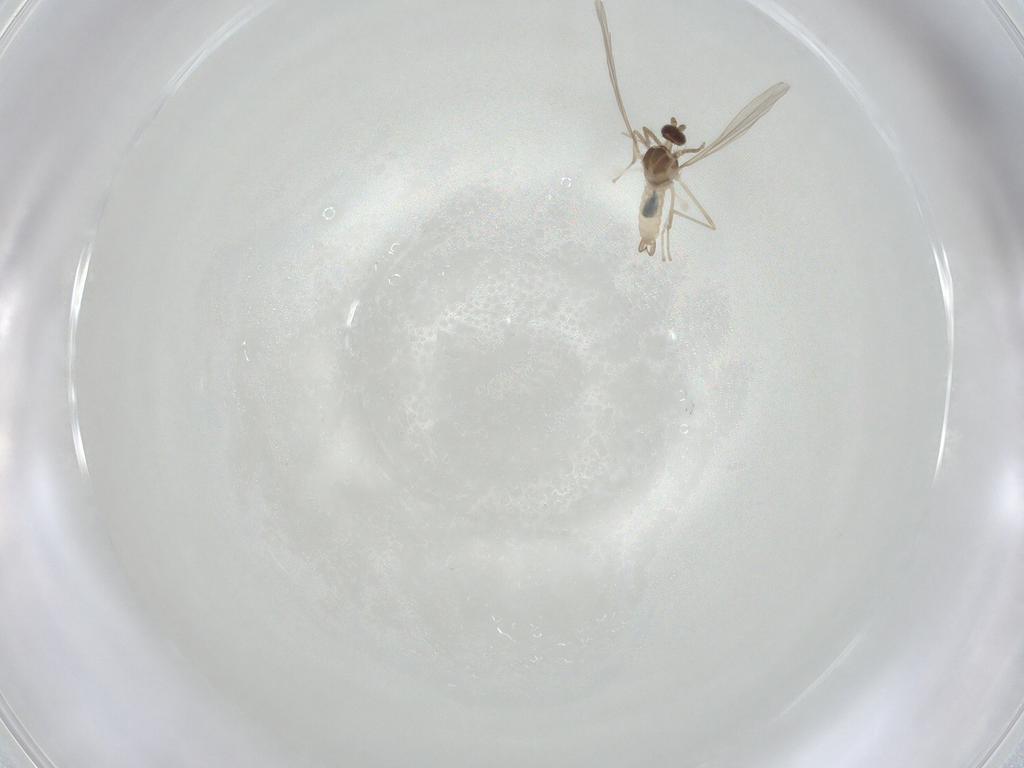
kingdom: Animalia
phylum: Arthropoda
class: Insecta
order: Diptera
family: Cecidomyiidae
